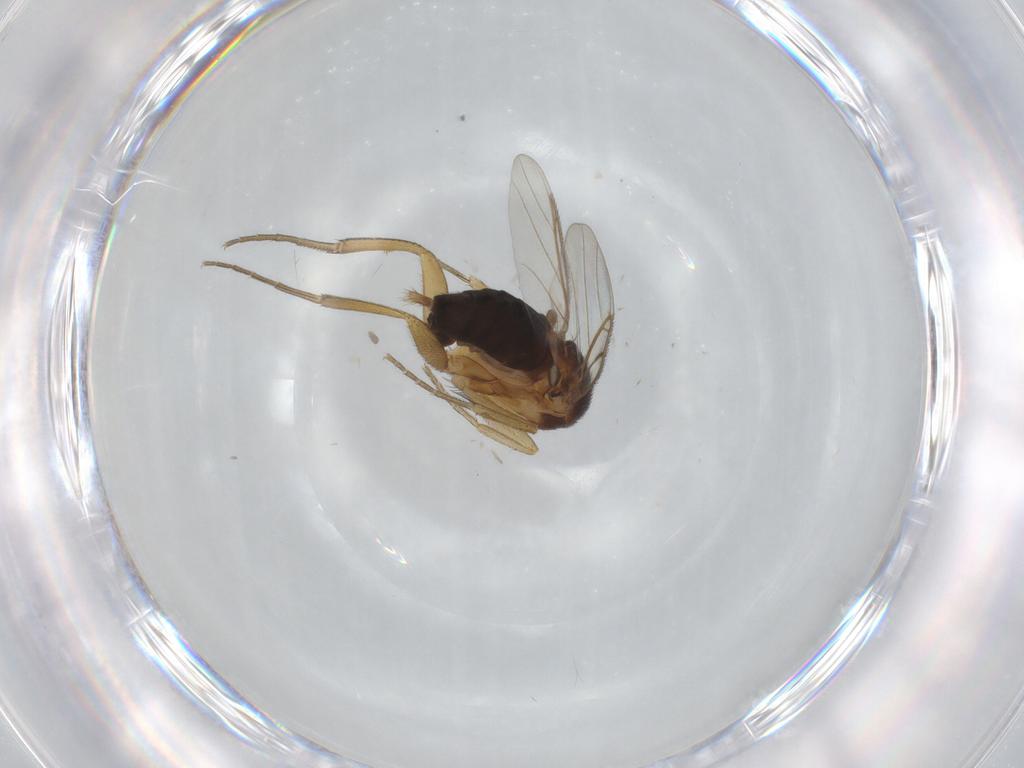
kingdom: Animalia
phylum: Arthropoda
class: Insecta
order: Diptera
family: Phoridae
